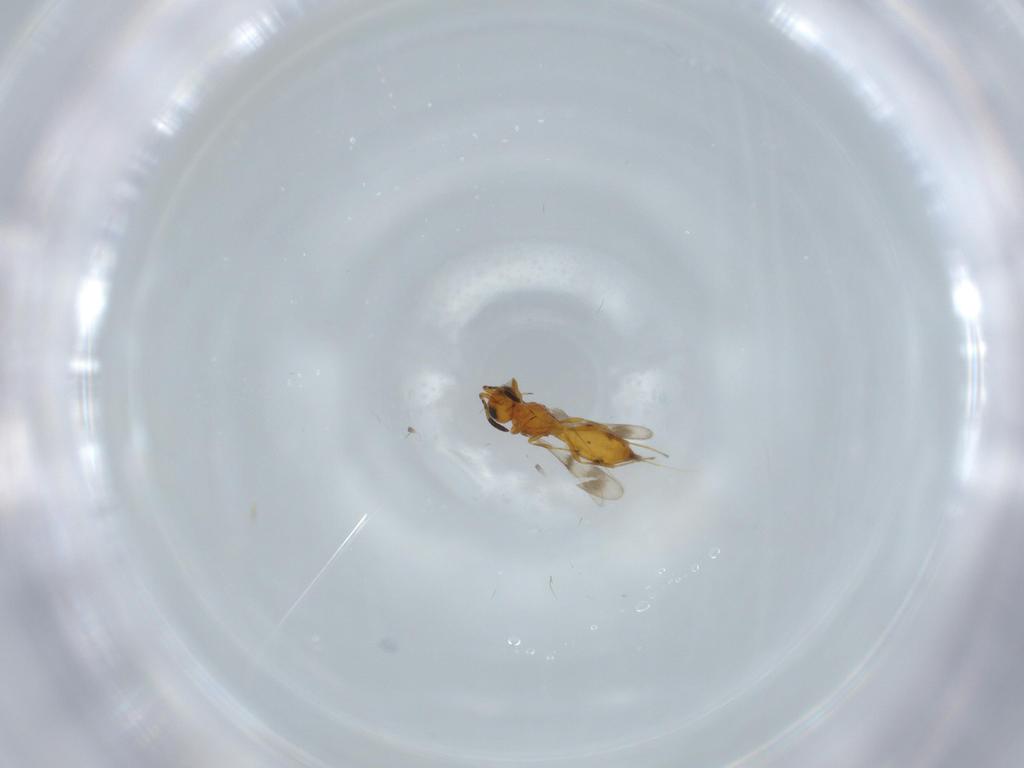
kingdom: Animalia
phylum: Arthropoda
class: Insecta
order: Hymenoptera
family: Scelionidae
